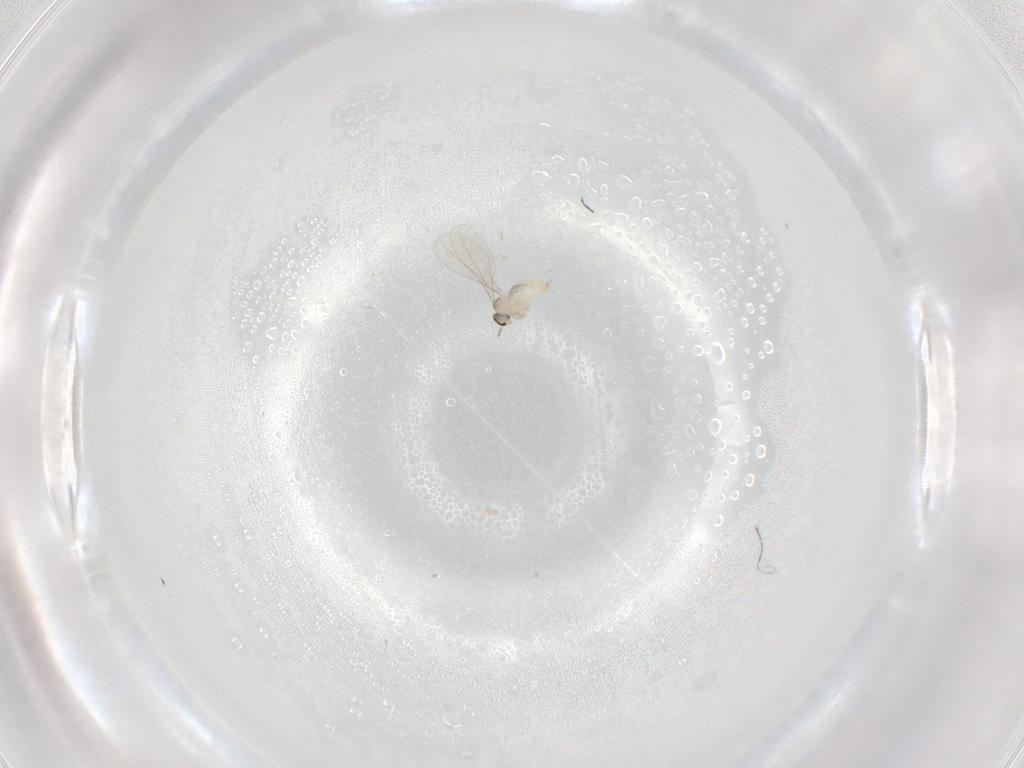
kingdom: Animalia
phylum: Arthropoda
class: Insecta
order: Diptera
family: Cecidomyiidae
